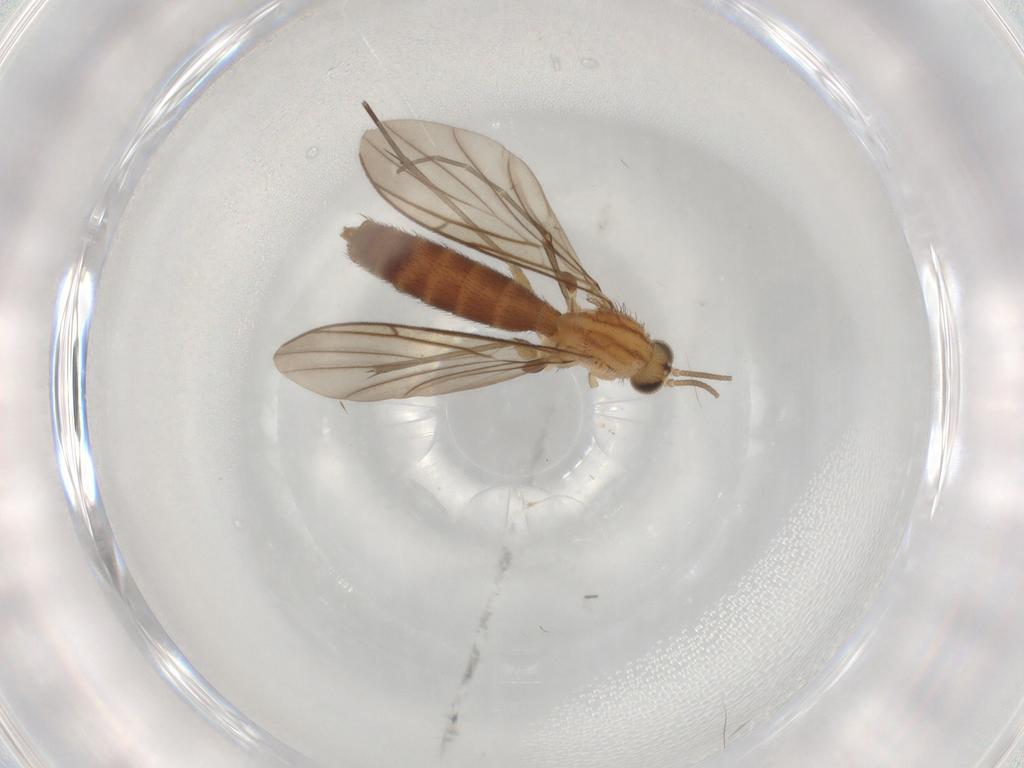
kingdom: Animalia
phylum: Arthropoda
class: Insecta
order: Diptera
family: Keroplatidae
